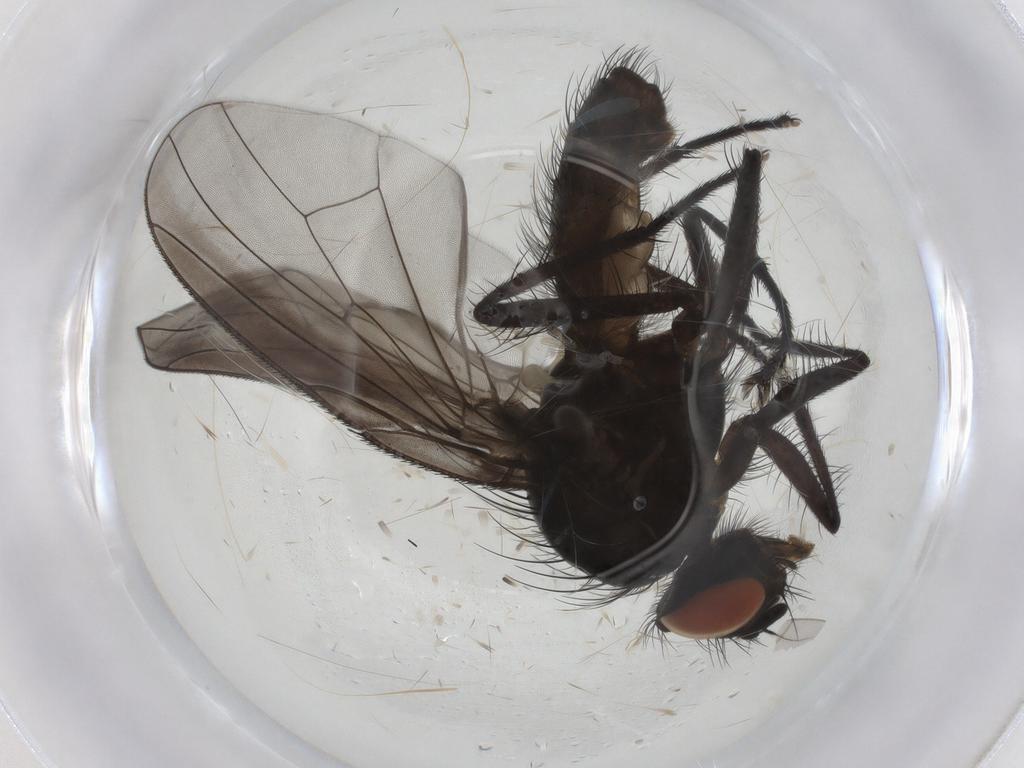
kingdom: Animalia
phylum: Arthropoda
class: Insecta
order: Diptera
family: Anthomyiidae
